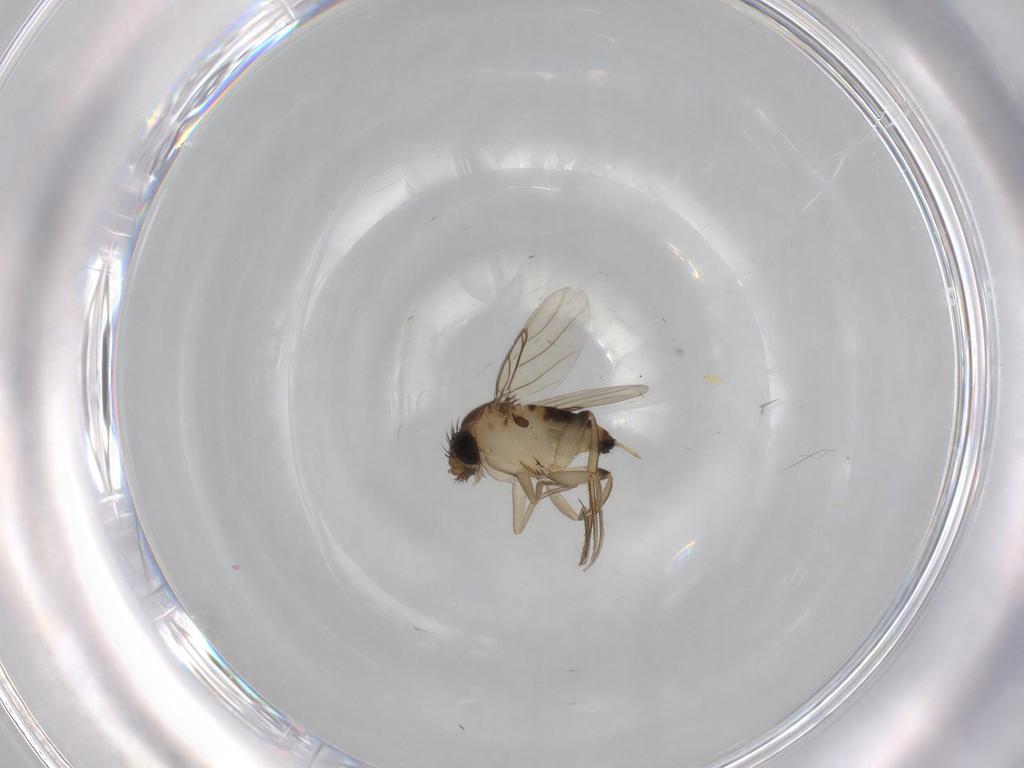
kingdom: Animalia
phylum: Arthropoda
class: Insecta
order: Diptera
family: Phoridae
